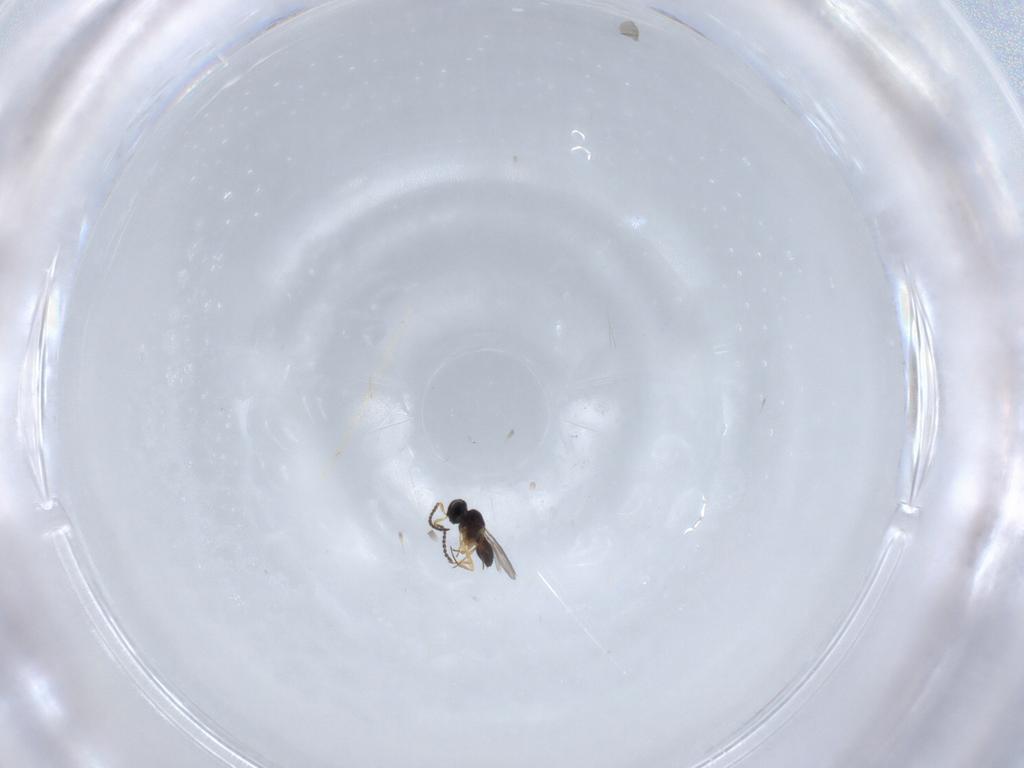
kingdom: Animalia
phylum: Arthropoda
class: Insecta
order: Hymenoptera
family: Scelionidae
